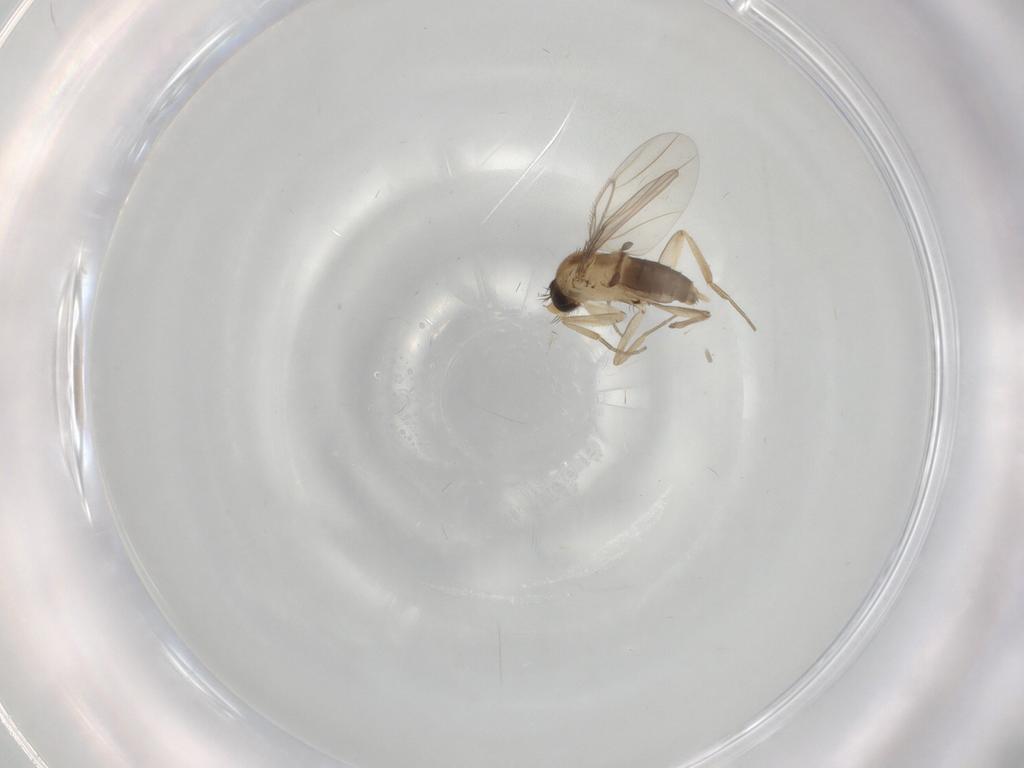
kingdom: Animalia
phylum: Arthropoda
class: Insecta
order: Diptera
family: Phoridae
